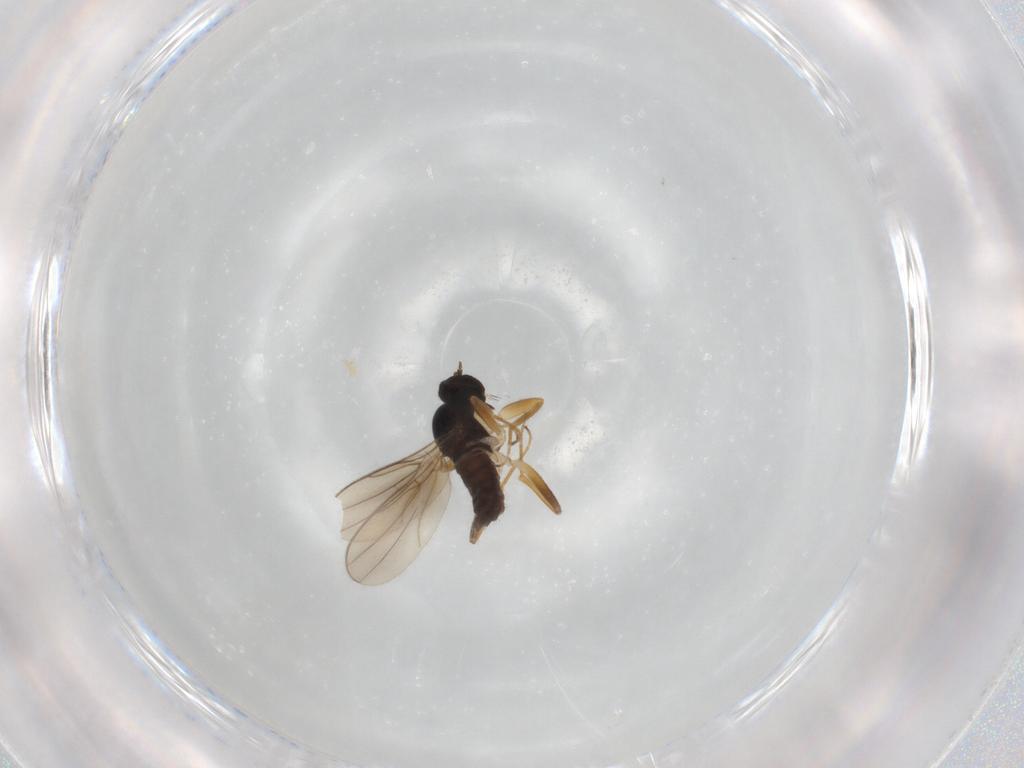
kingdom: Animalia
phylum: Arthropoda
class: Insecta
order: Diptera
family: Hybotidae
